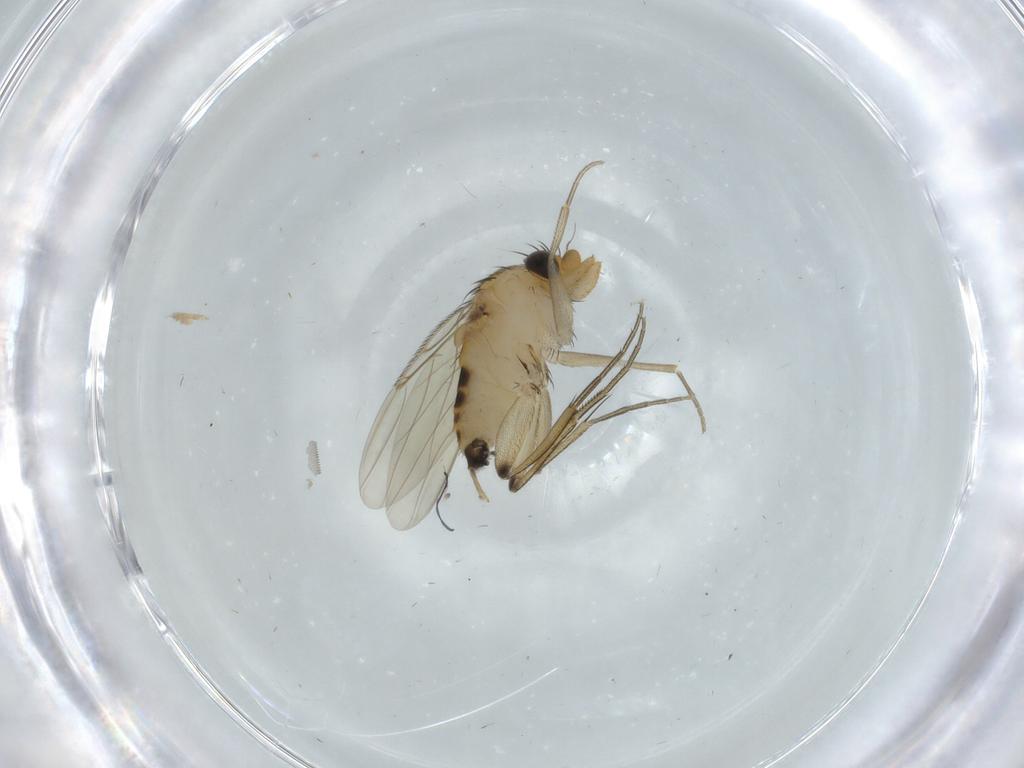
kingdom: Animalia
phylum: Arthropoda
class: Insecta
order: Diptera
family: Phoridae
